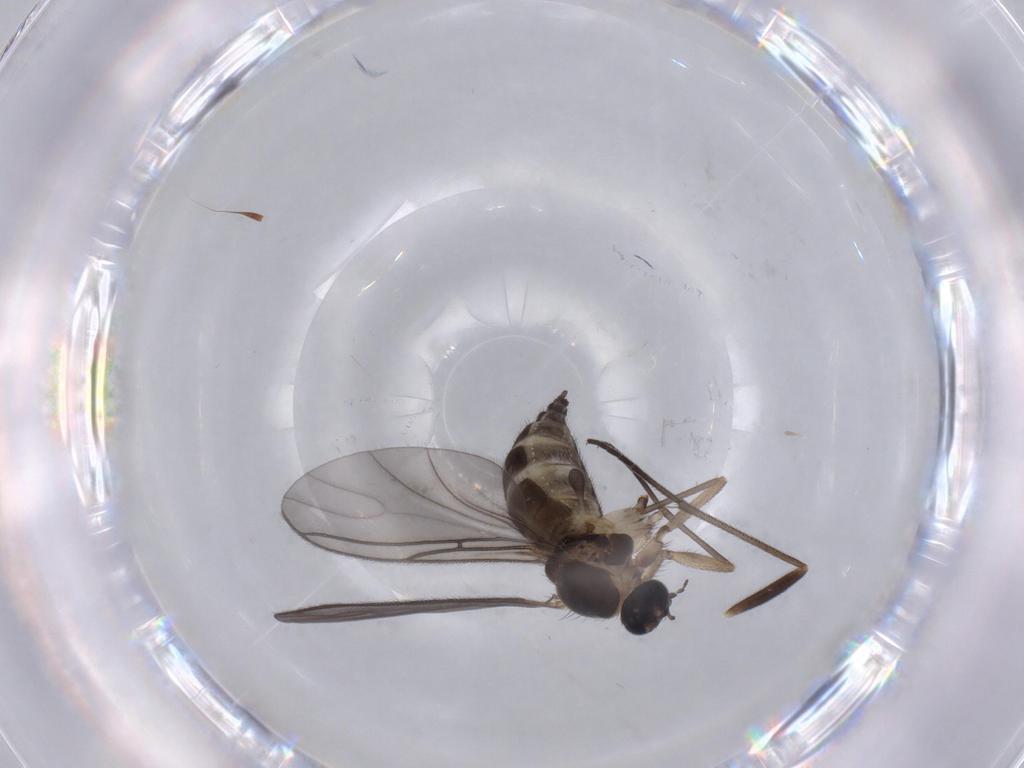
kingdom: Animalia
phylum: Arthropoda
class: Insecta
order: Diptera
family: Sciaridae
